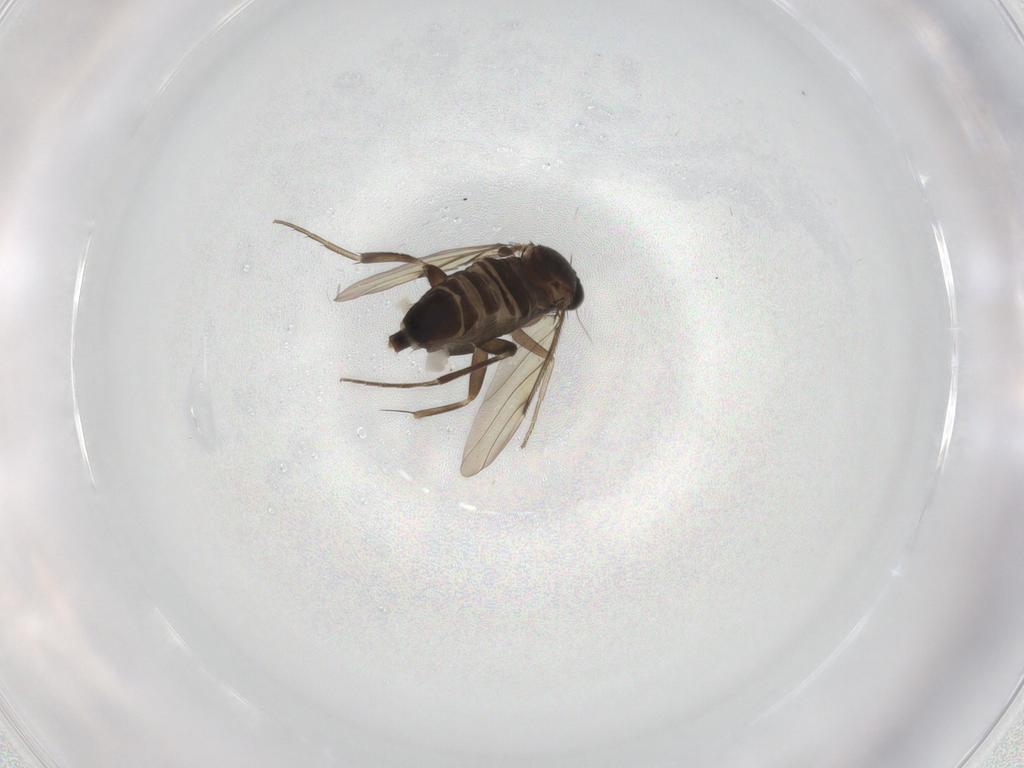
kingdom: Animalia
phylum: Arthropoda
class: Insecta
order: Diptera
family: Phoridae
